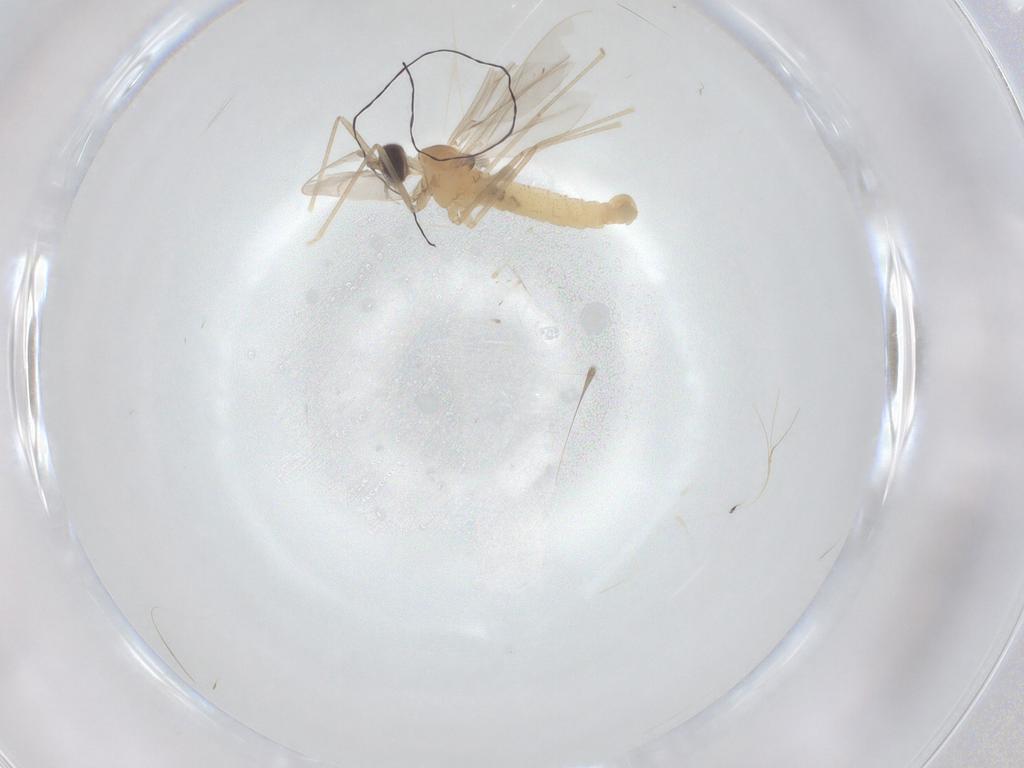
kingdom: Animalia
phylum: Arthropoda
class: Insecta
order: Diptera
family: Cecidomyiidae
